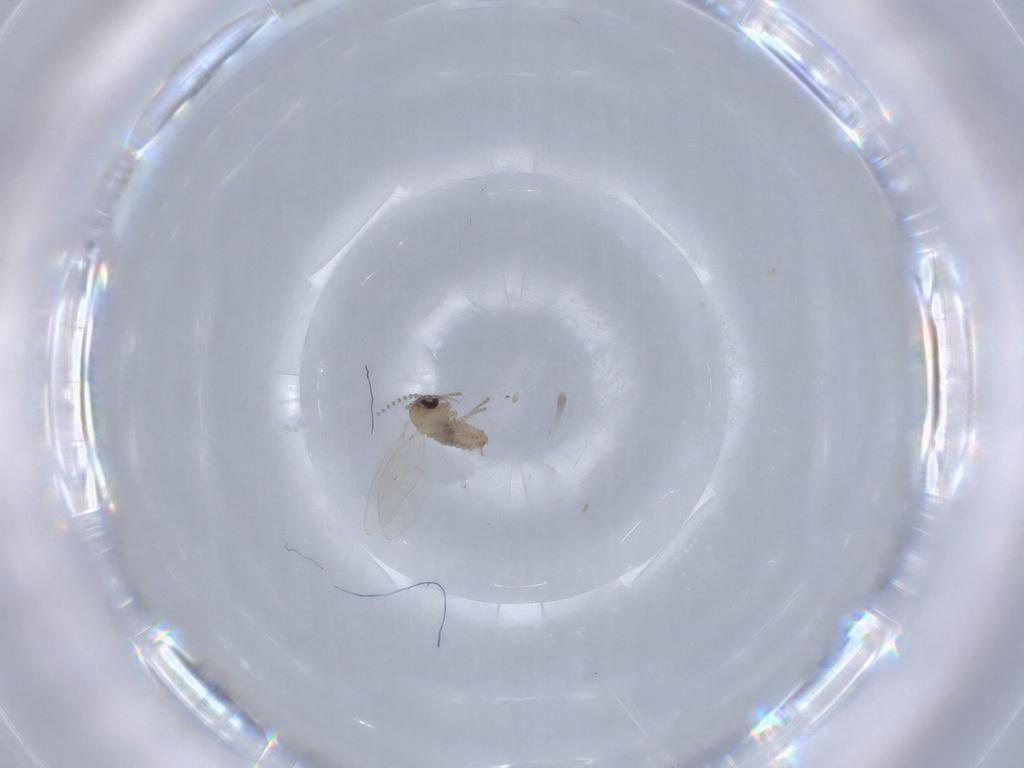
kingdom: Animalia
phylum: Arthropoda
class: Insecta
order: Diptera
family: Psychodidae
